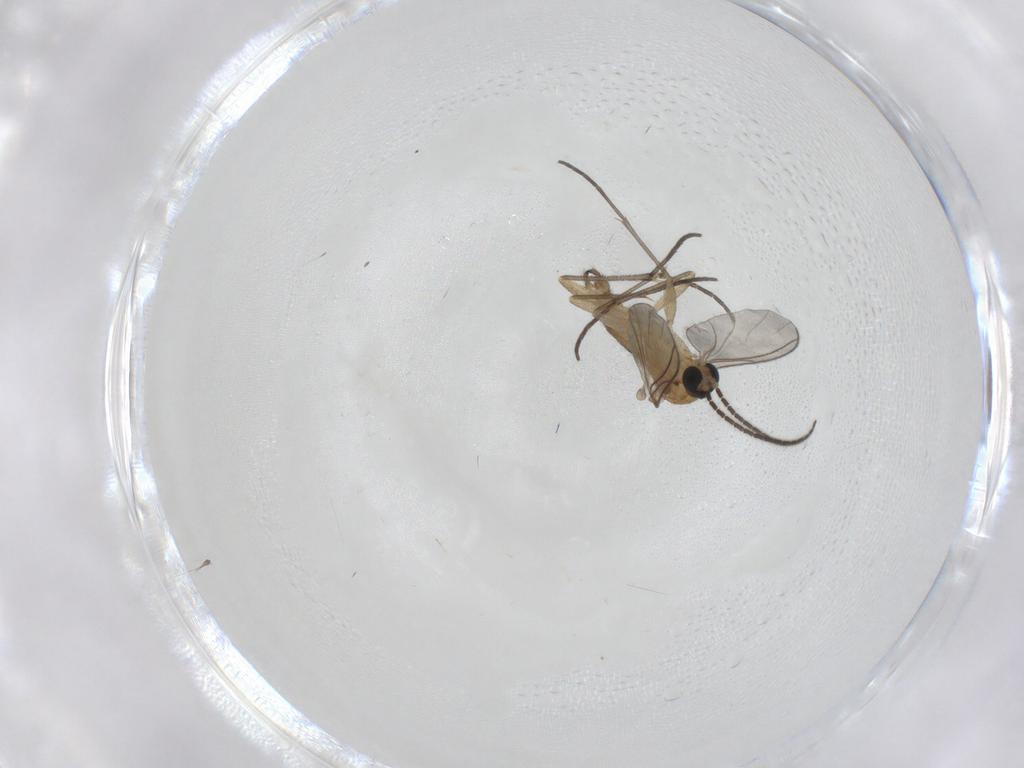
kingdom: Animalia
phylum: Arthropoda
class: Insecta
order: Diptera
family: Sciaridae
